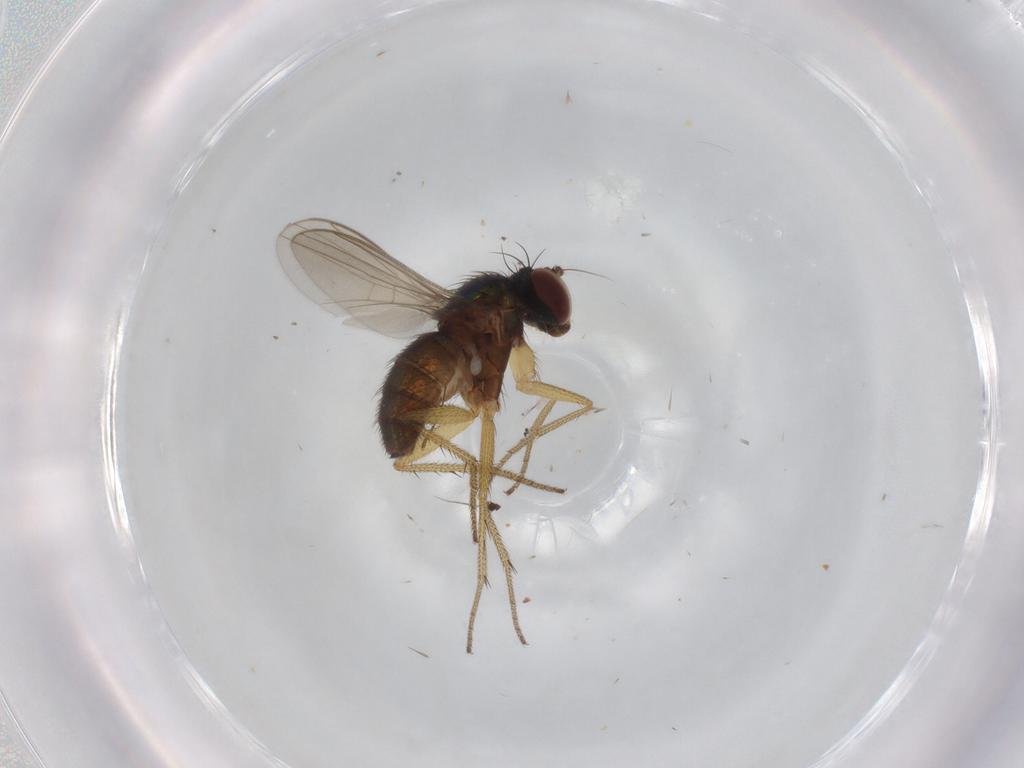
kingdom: Animalia
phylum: Arthropoda
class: Insecta
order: Diptera
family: Dolichopodidae
